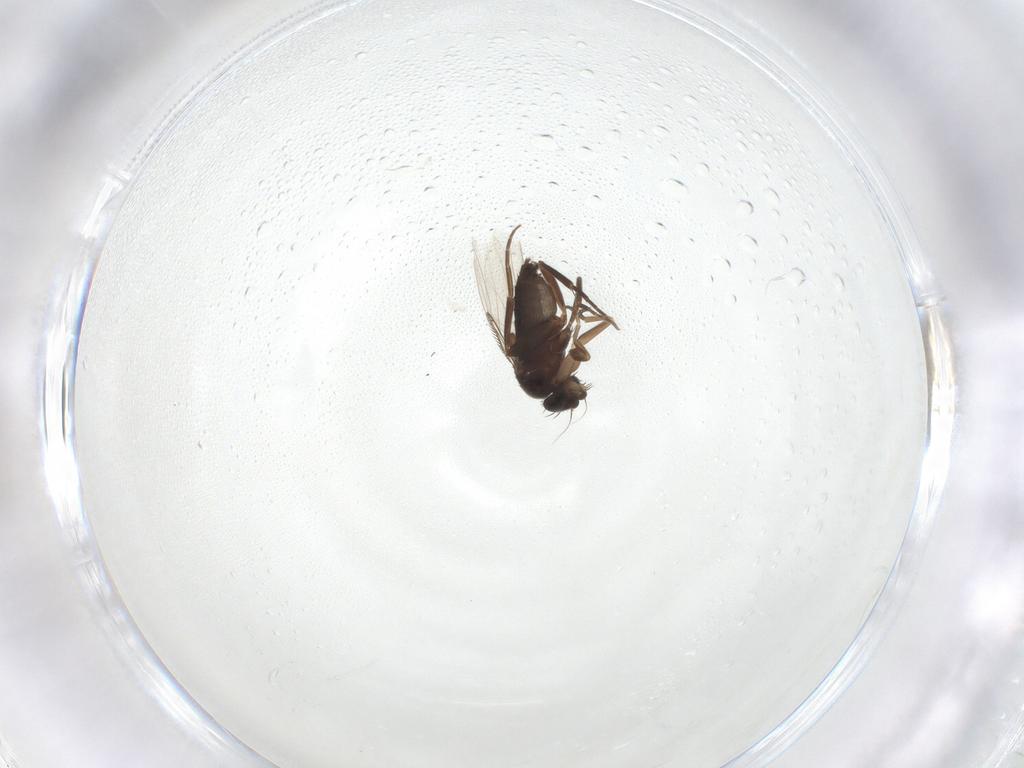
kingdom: Animalia
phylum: Arthropoda
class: Insecta
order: Diptera
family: Phoridae
